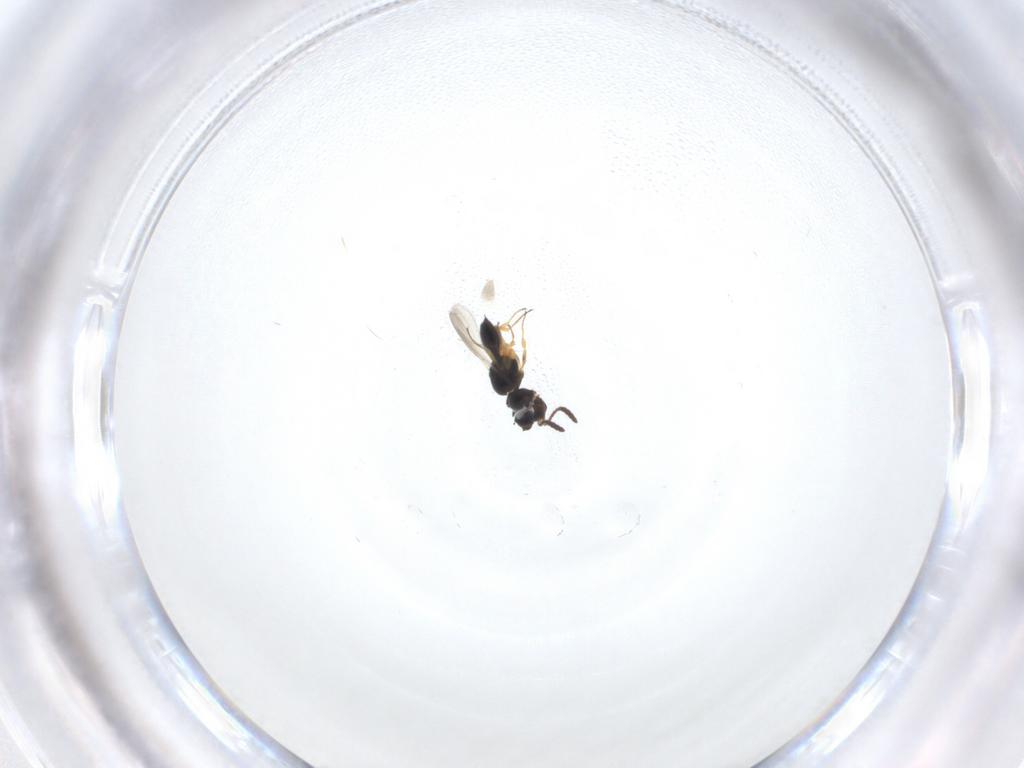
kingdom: Animalia
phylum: Arthropoda
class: Insecta
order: Hymenoptera
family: Scelionidae
